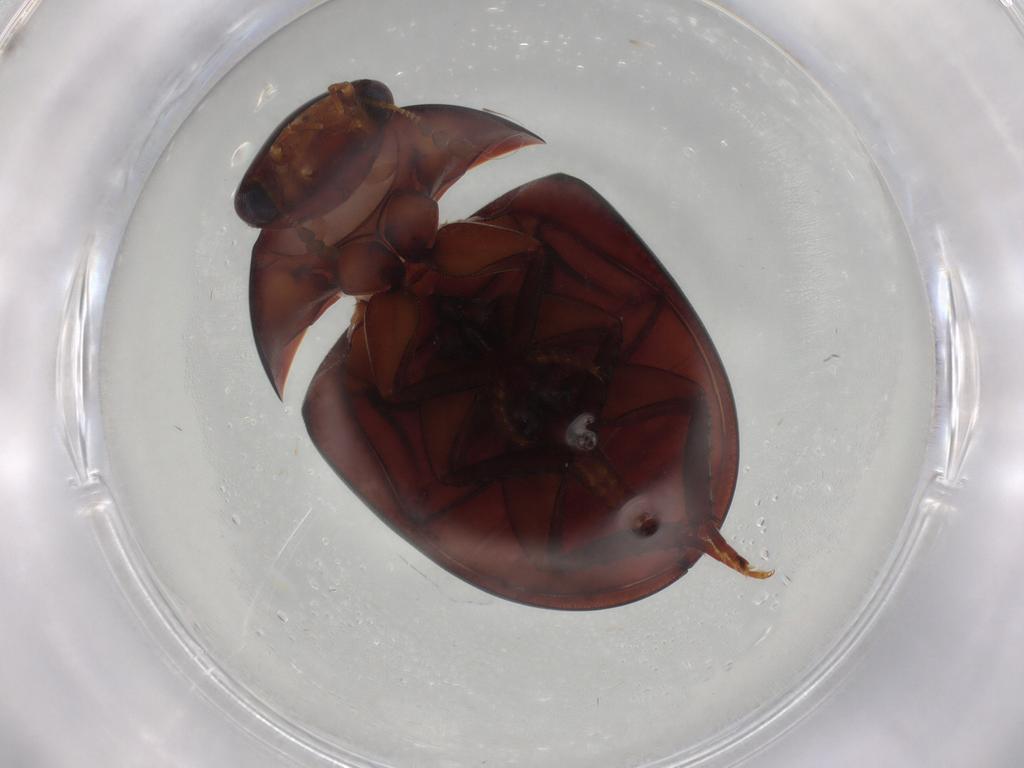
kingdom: Animalia
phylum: Arthropoda
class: Insecta
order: Coleoptera
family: Hydrophilidae
